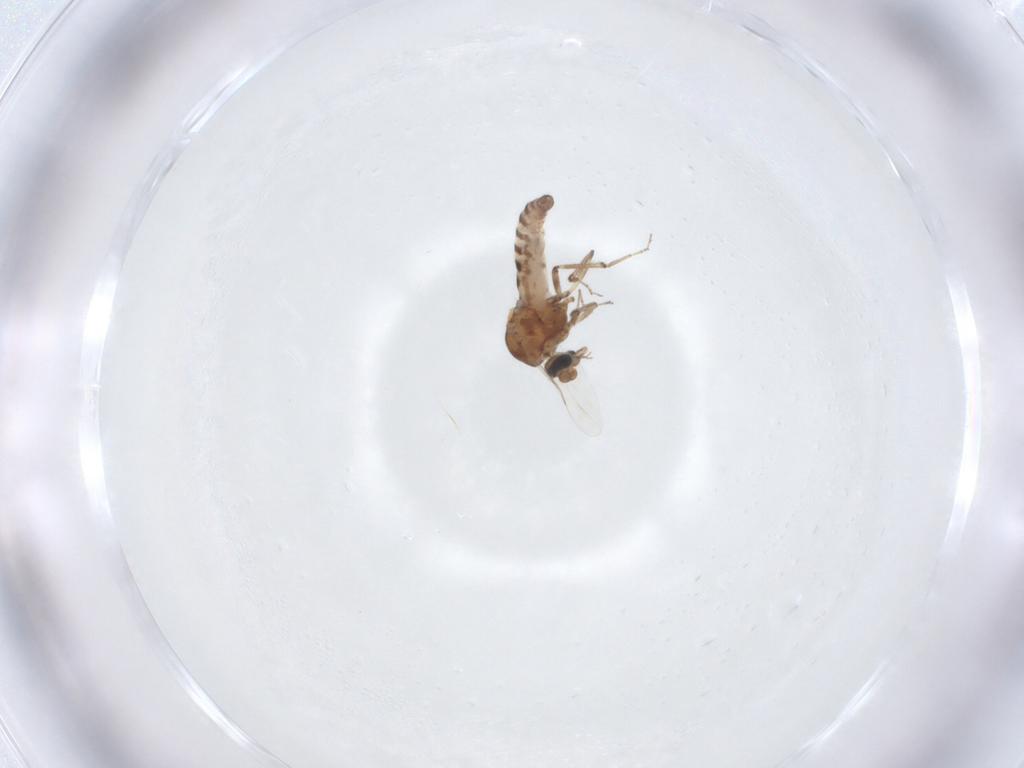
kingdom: Animalia
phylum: Arthropoda
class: Insecta
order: Diptera
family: Ceratopogonidae
